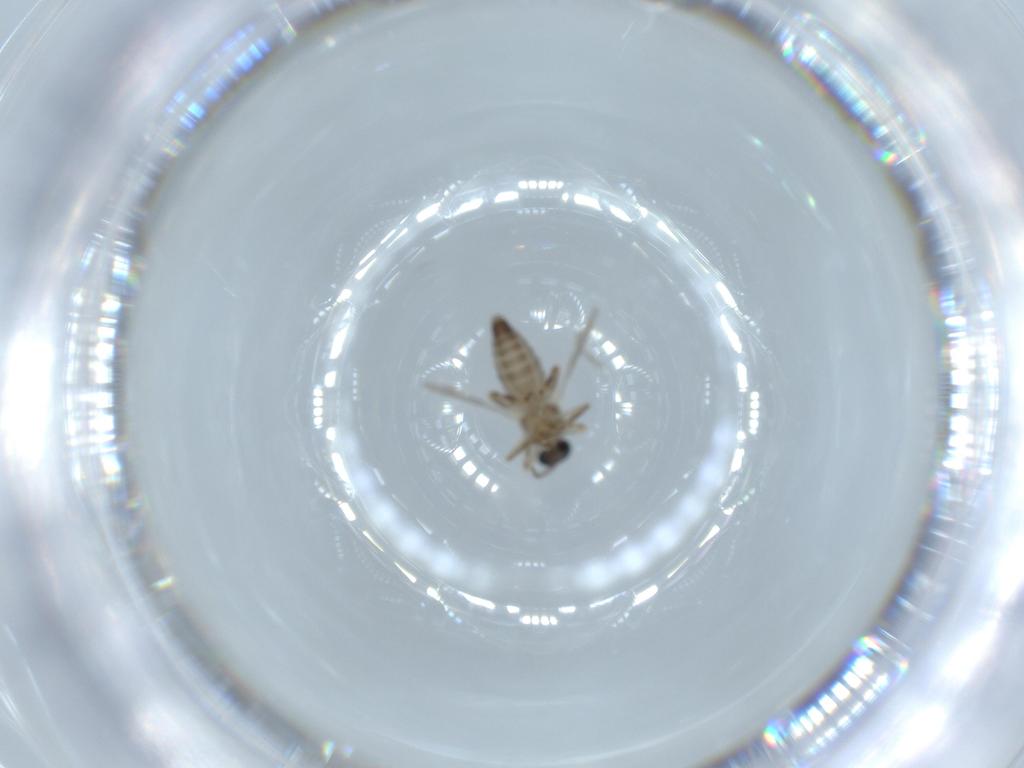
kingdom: Animalia
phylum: Arthropoda
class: Insecta
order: Diptera
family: Ceratopogonidae
